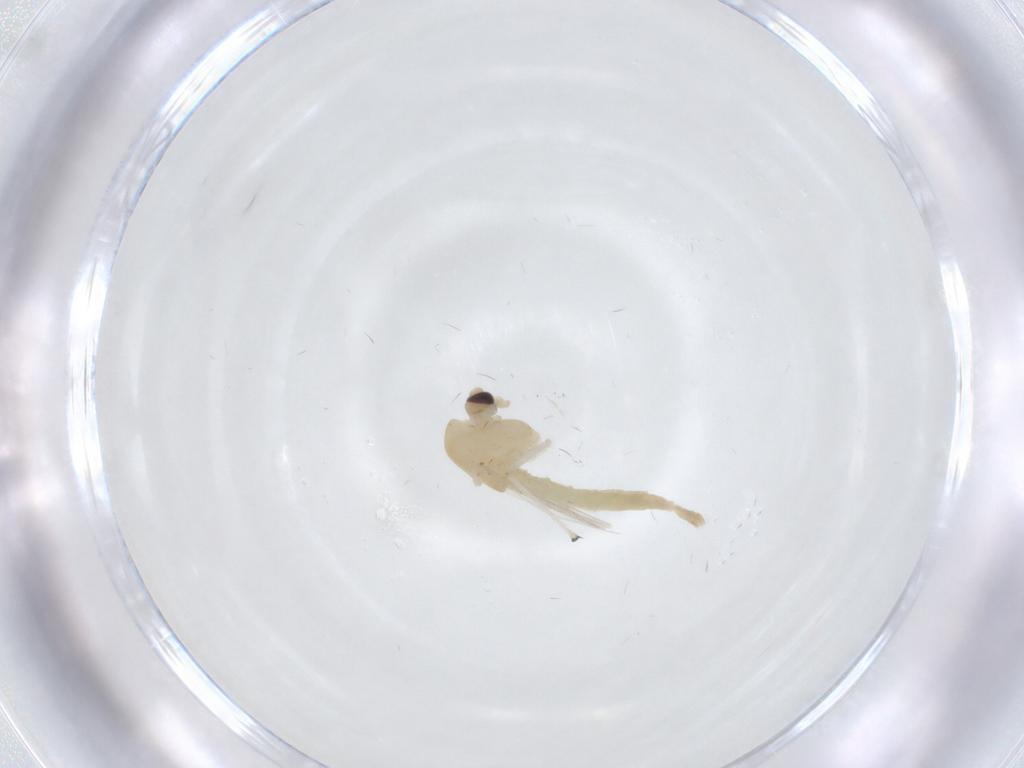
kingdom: Animalia
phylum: Arthropoda
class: Insecta
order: Diptera
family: Chironomidae
